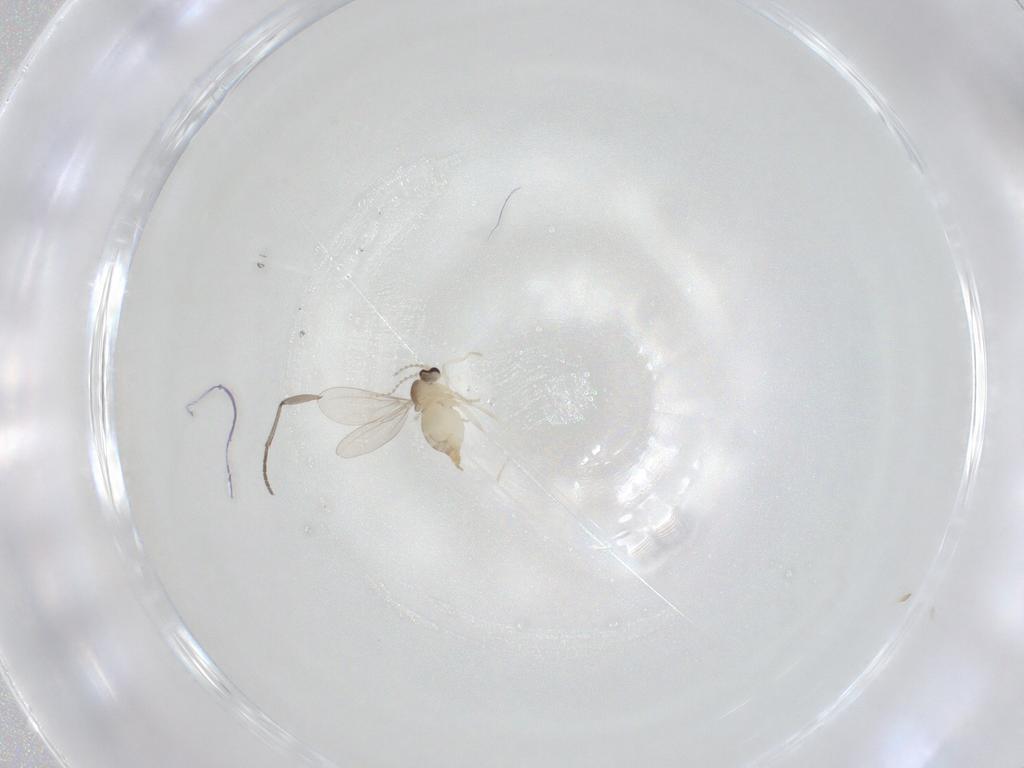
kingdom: Animalia
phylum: Arthropoda
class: Insecta
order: Diptera
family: Cecidomyiidae
